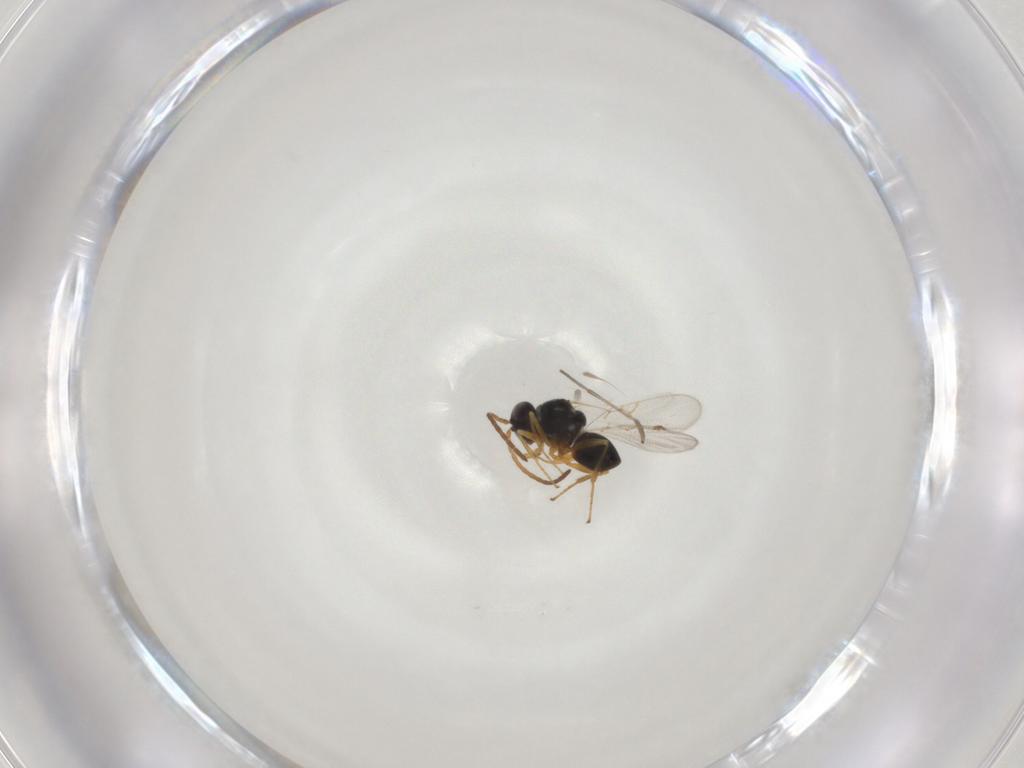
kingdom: Animalia
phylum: Arthropoda
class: Insecta
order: Hymenoptera
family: Figitidae
